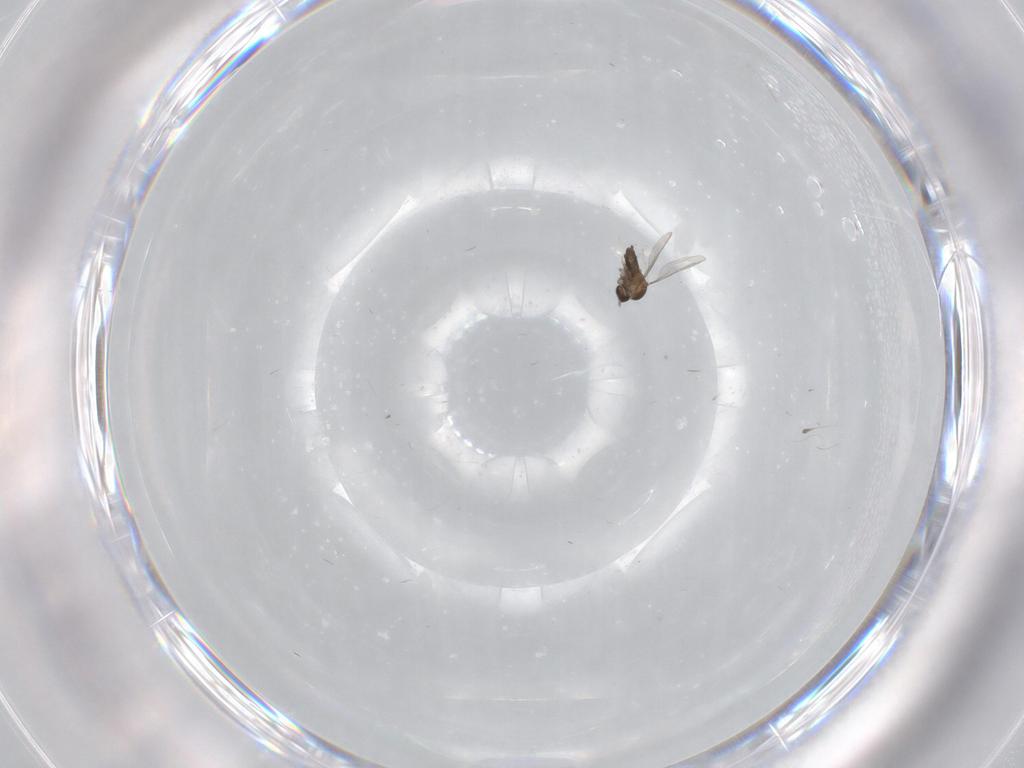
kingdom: Animalia
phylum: Arthropoda
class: Insecta
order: Diptera
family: Cecidomyiidae
